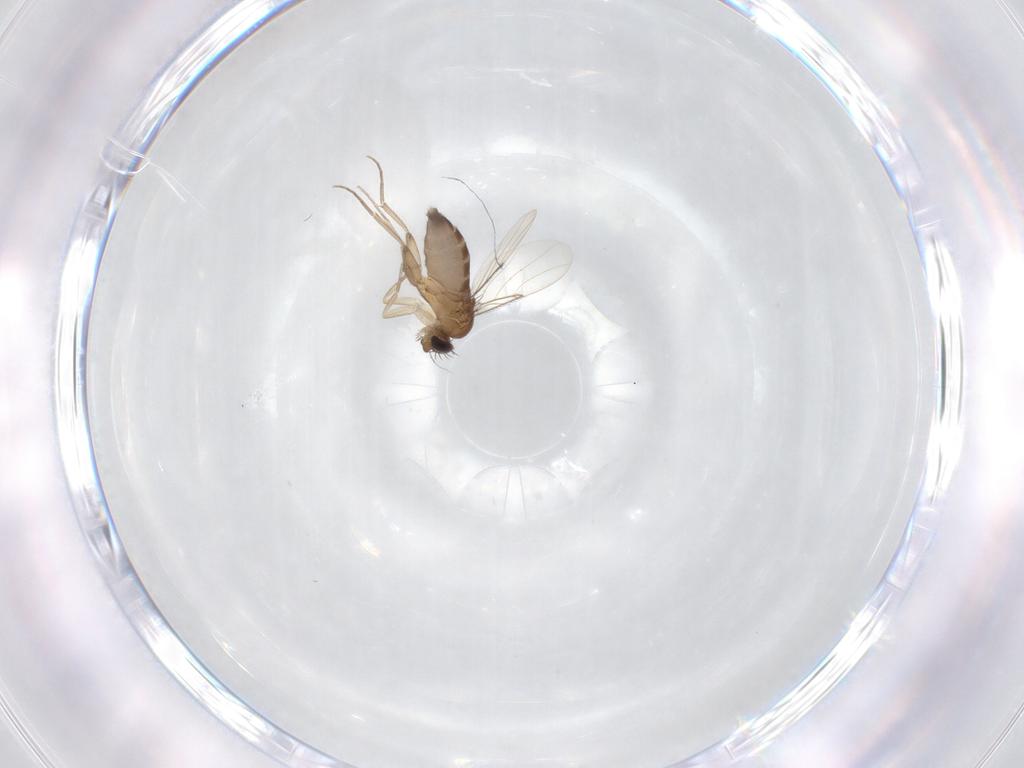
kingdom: Animalia
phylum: Arthropoda
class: Insecta
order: Diptera
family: Phoridae
